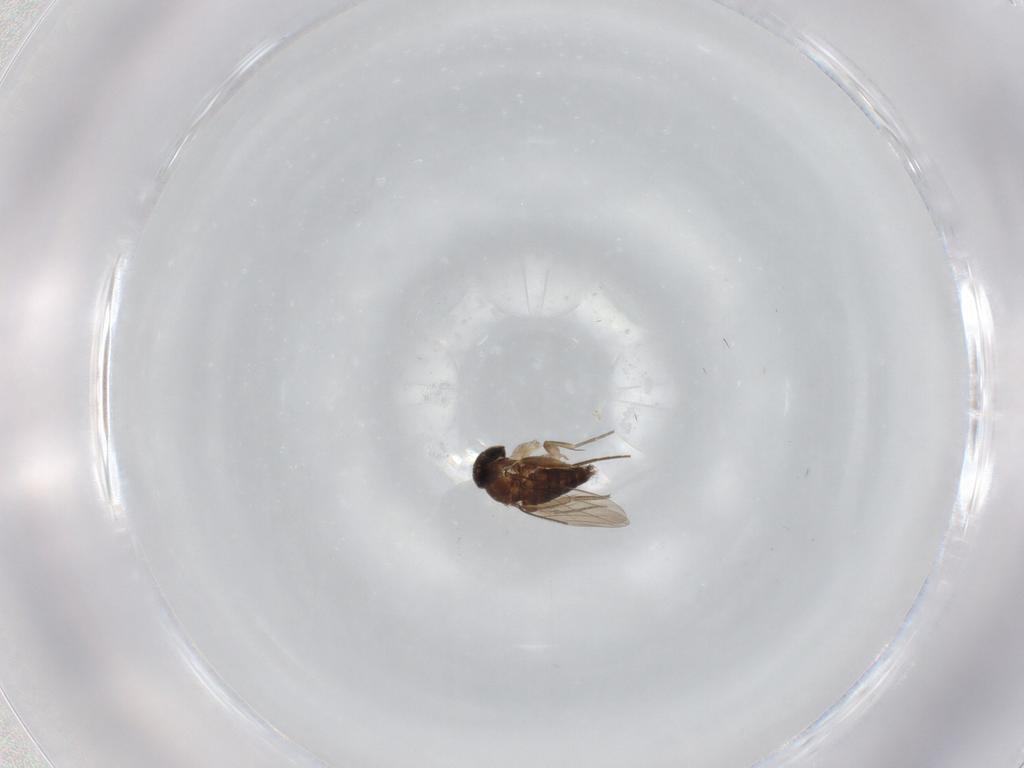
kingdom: Animalia
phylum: Arthropoda
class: Insecta
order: Diptera
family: Phoridae
